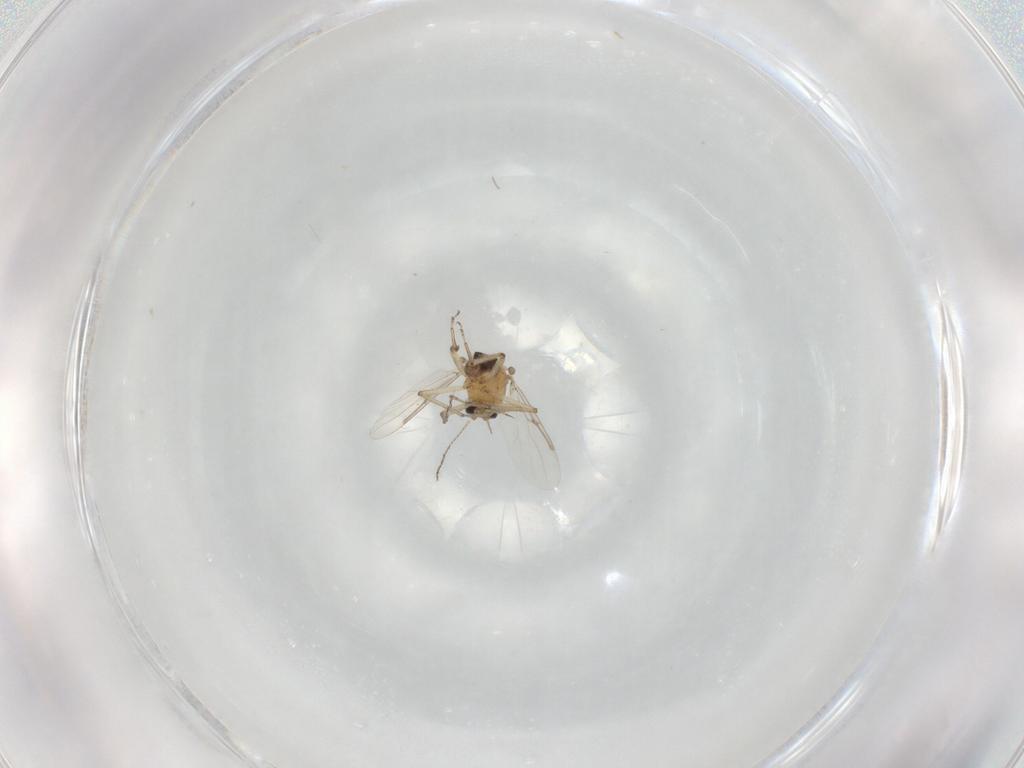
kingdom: Animalia
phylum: Arthropoda
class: Insecta
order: Diptera
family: Ceratopogonidae
